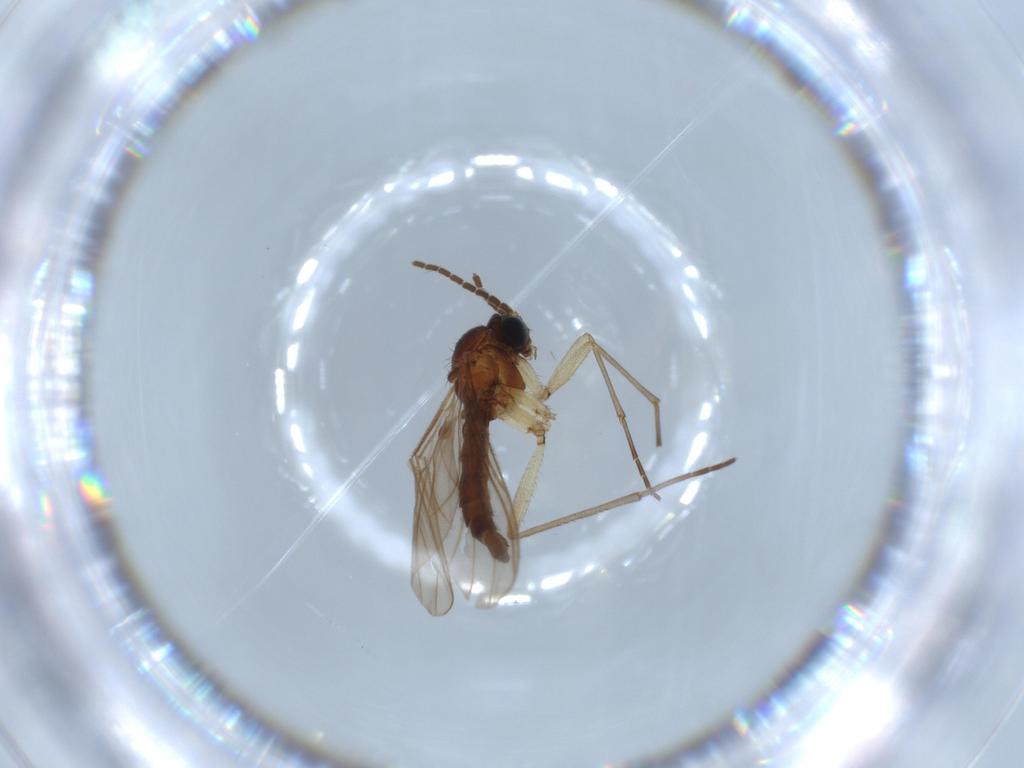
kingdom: Animalia
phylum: Arthropoda
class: Insecta
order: Diptera
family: Sciaridae
